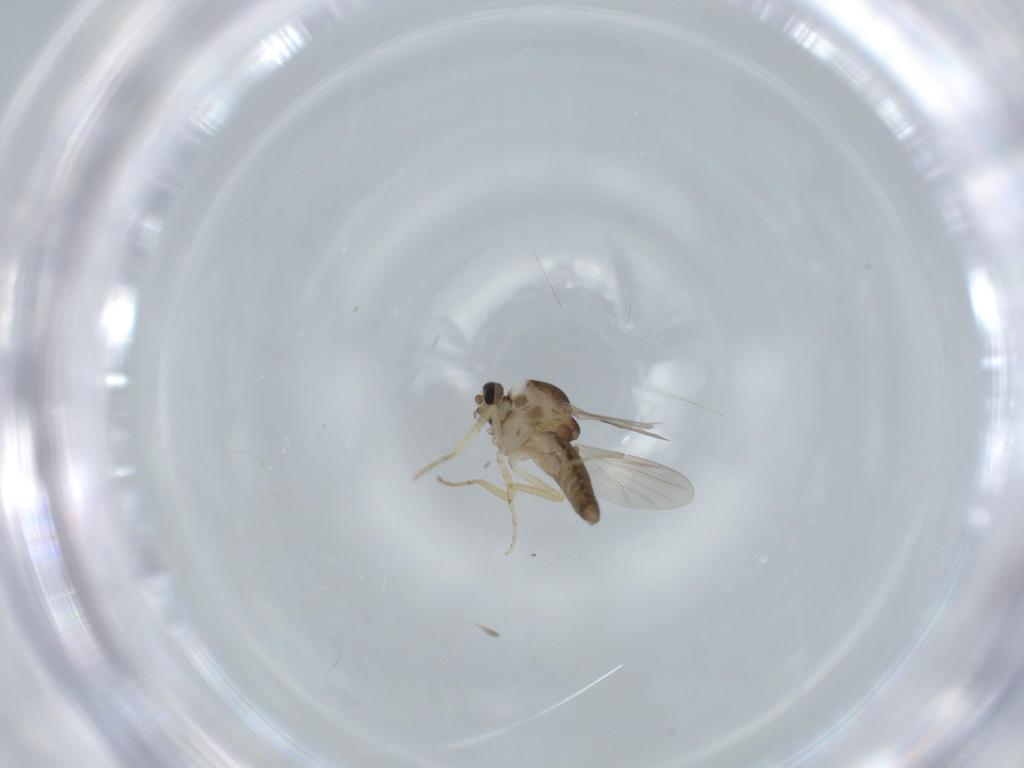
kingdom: Animalia
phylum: Arthropoda
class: Insecta
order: Diptera
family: Ceratopogonidae
